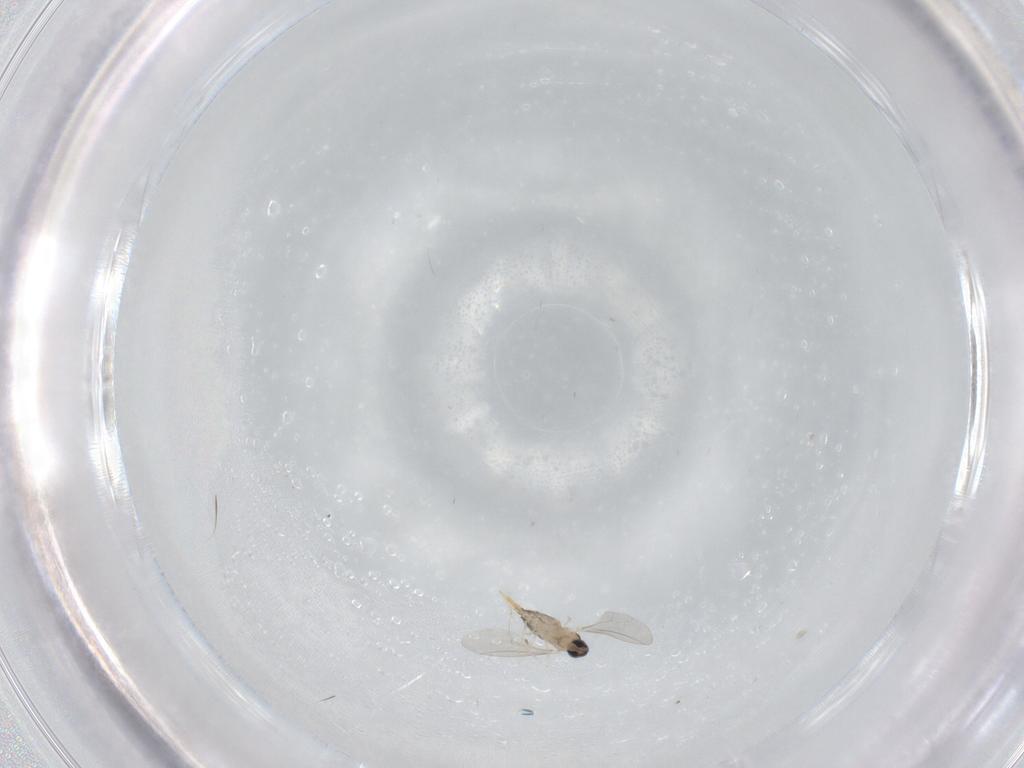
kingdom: Animalia
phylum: Arthropoda
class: Insecta
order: Diptera
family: Cecidomyiidae
